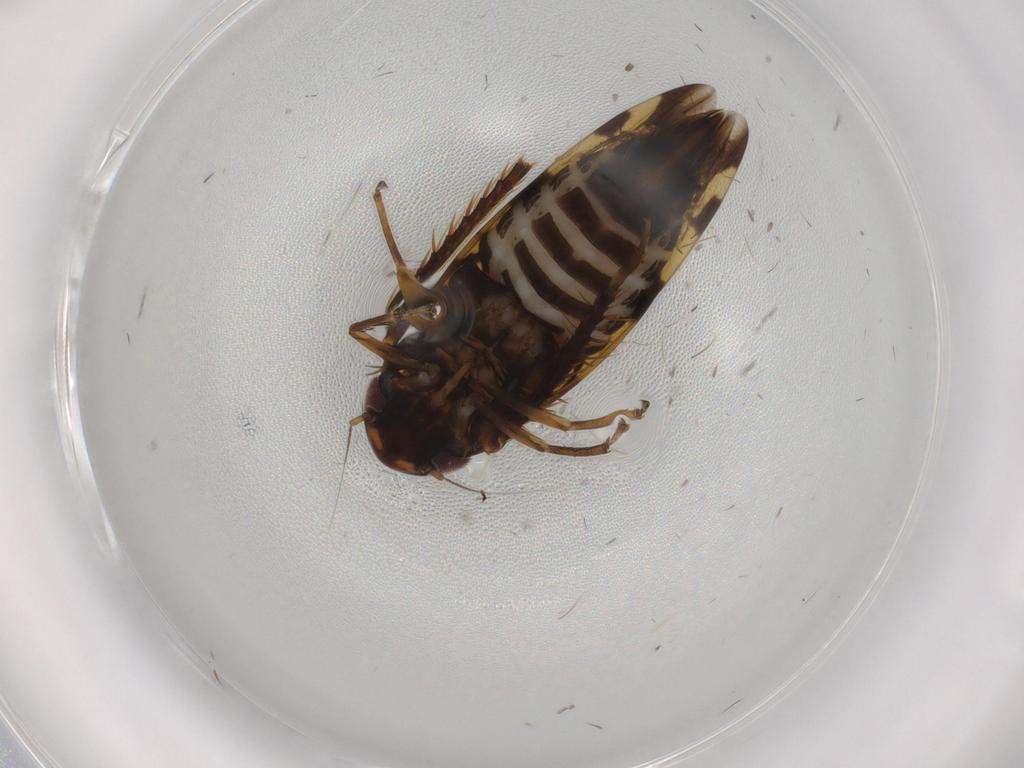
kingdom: Animalia
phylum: Arthropoda
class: Insecta
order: Hemiptera
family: Cicadellidae
